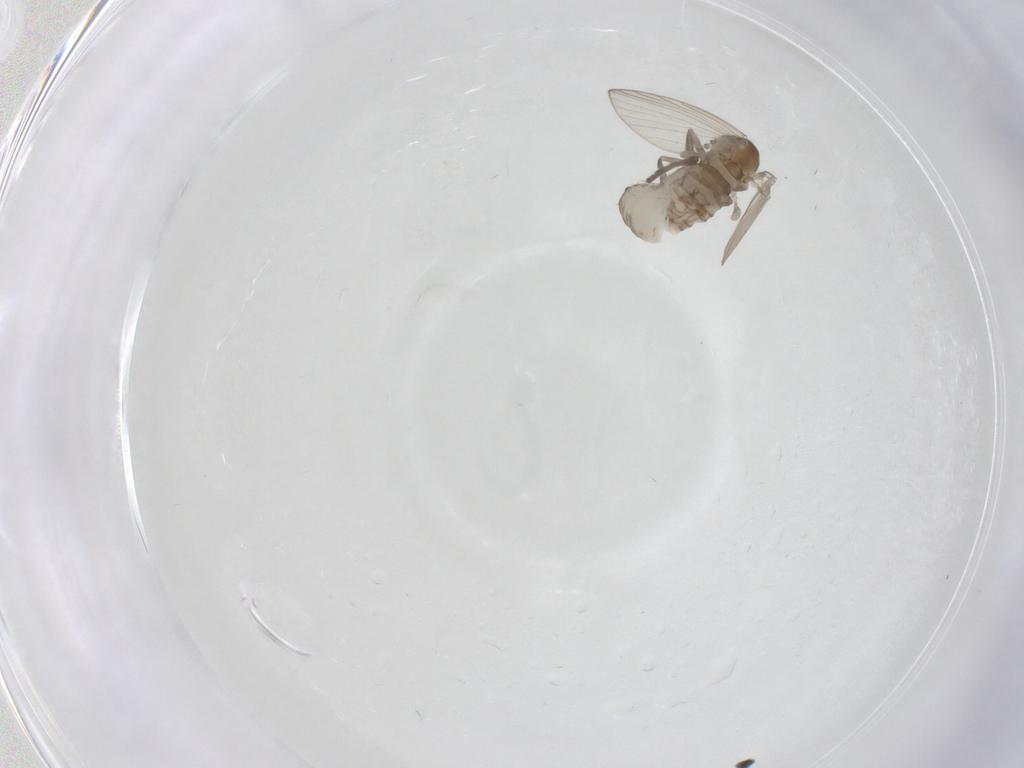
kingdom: Animalia
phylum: Arthropoda
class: Insecta
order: Diptera
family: Psychodidae
